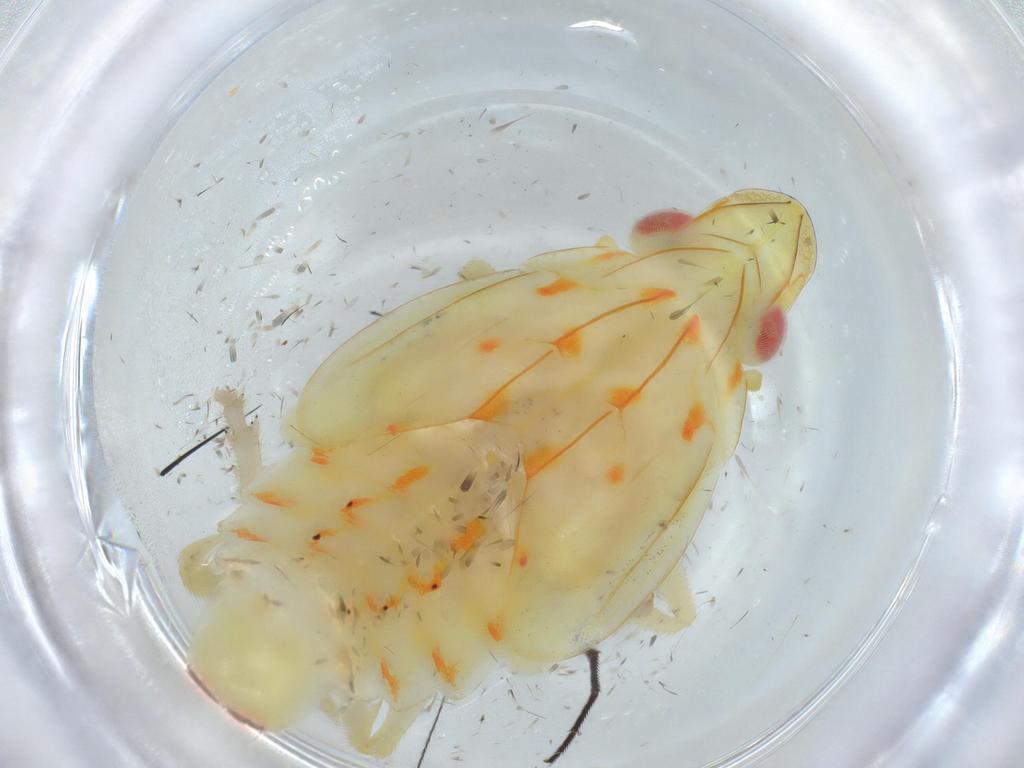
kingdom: Animalia
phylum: Arthropoda
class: Insecta
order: Hemiptera
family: Tropiduchidae
